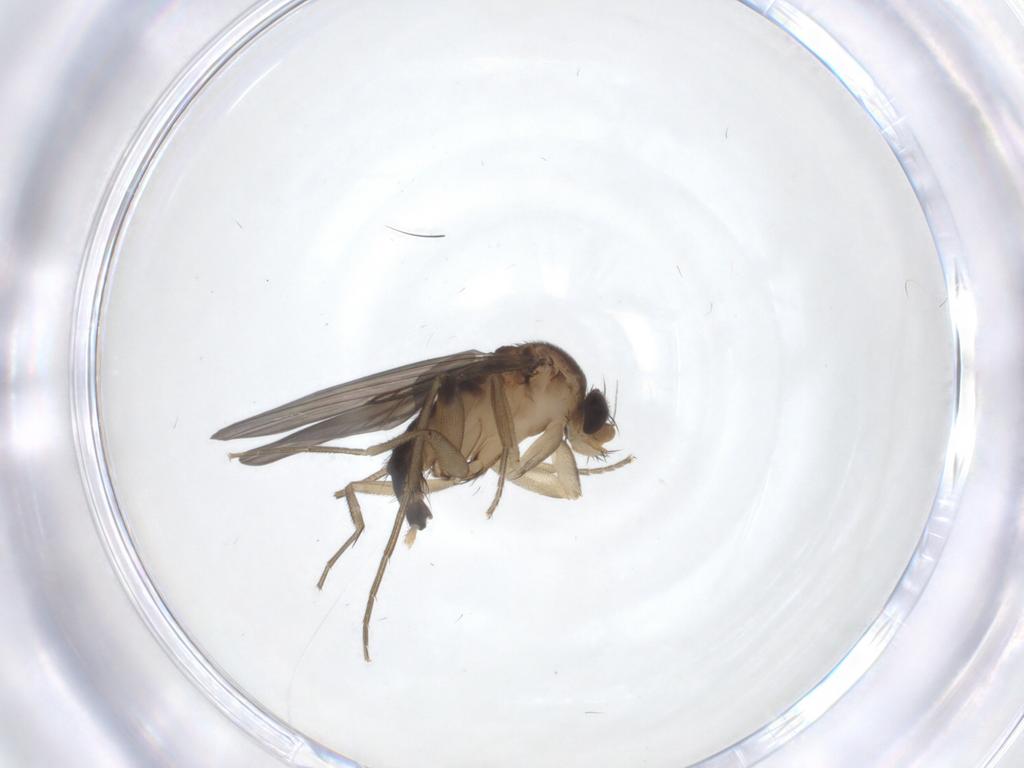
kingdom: Animalia
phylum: Arthropoda
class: Insecta
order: Diptera
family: Phoridae
